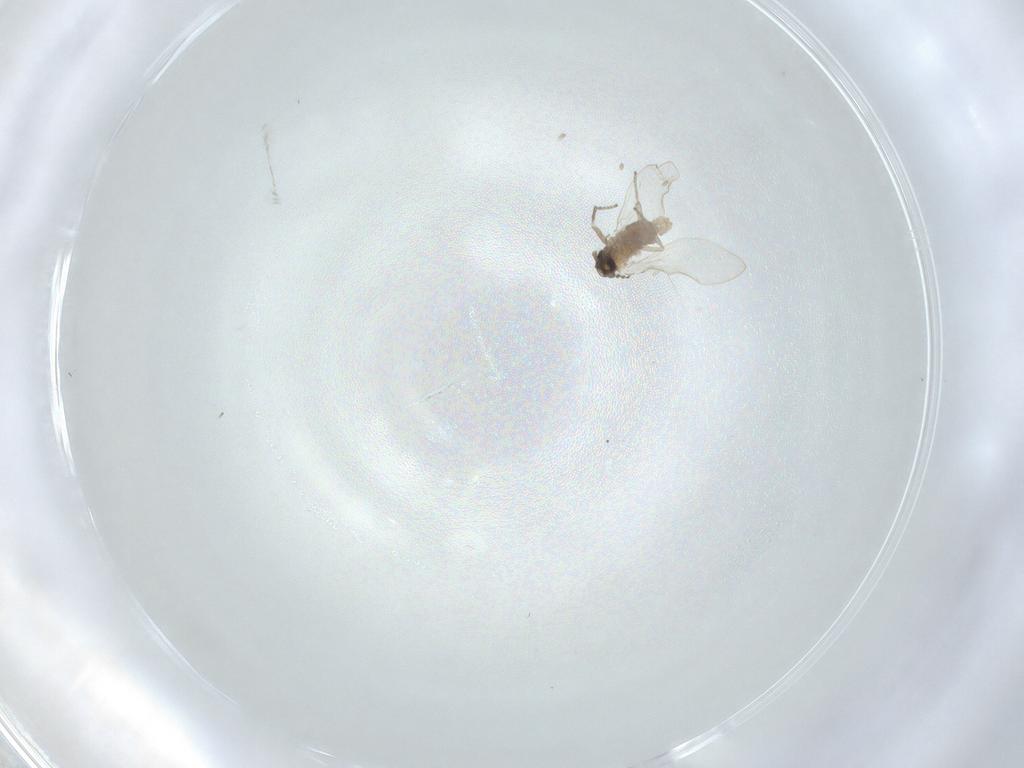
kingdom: Animalia
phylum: Arthropoda
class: Insecta
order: Diptera
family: Psychodidae
